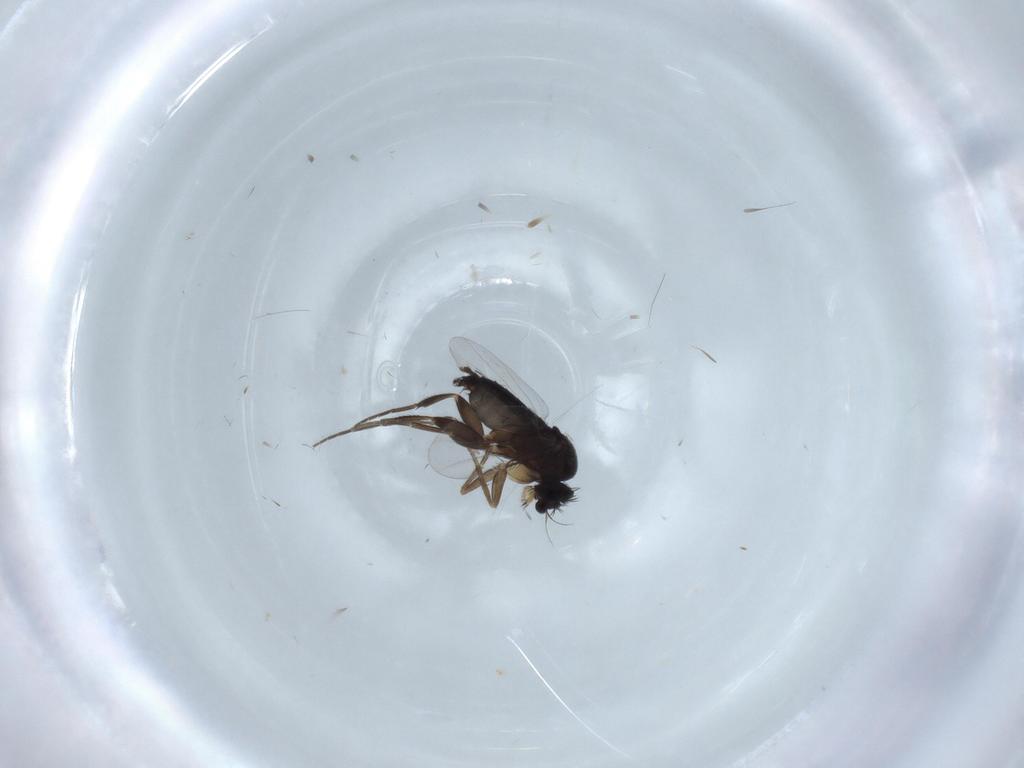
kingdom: Animalia
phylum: Arthropoda
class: Insecta
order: Diptera
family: Phoridae
